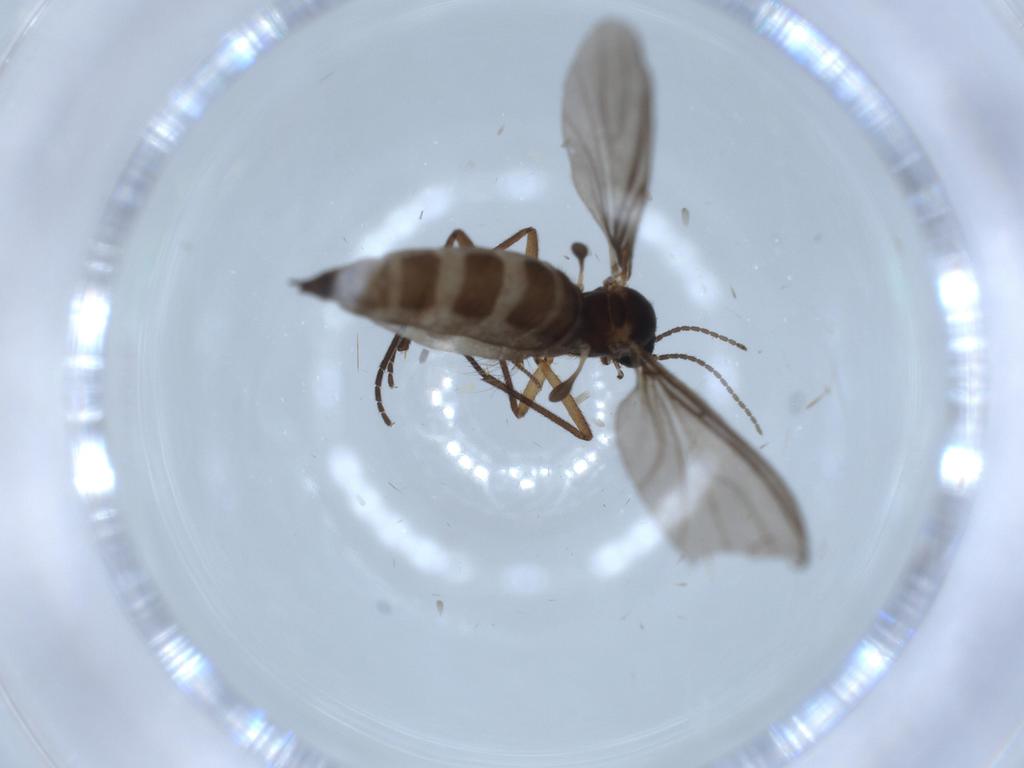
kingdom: Animalia
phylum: Arthropoda
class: Insecta
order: Diptera
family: Sciaridae
